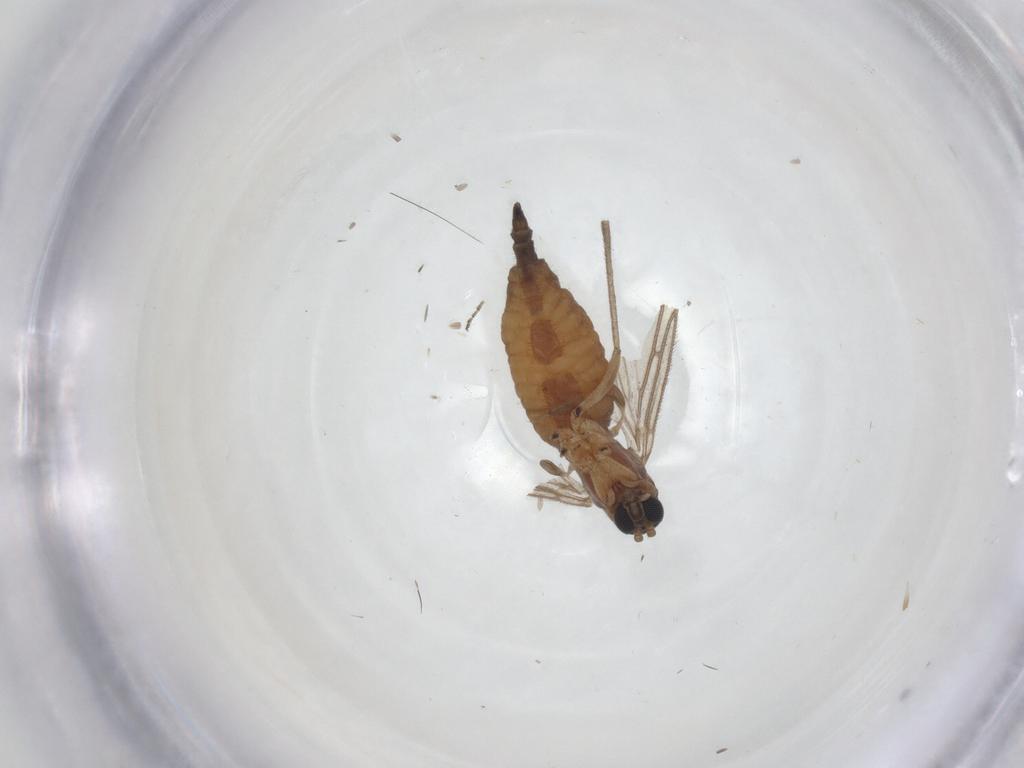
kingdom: Animalia
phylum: Arthropoda
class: Insecta
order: Diptera
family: Sciaridae
